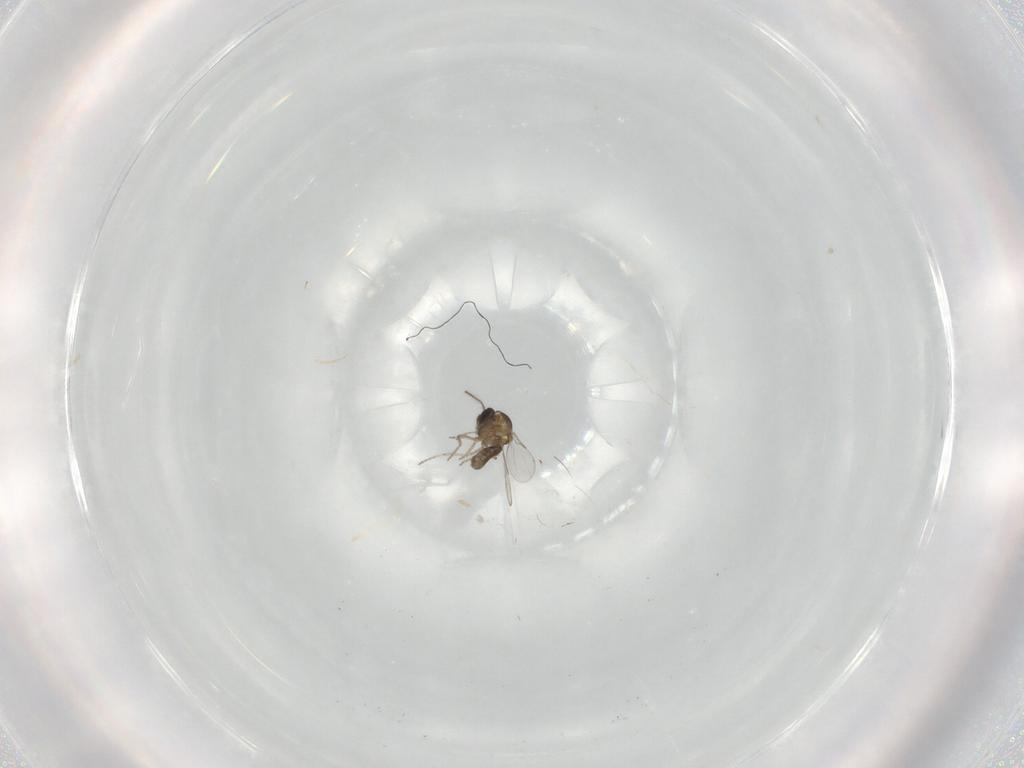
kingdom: Animalia
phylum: Arthropoda
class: Insecta
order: Diptera
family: Ceratopogonidae
